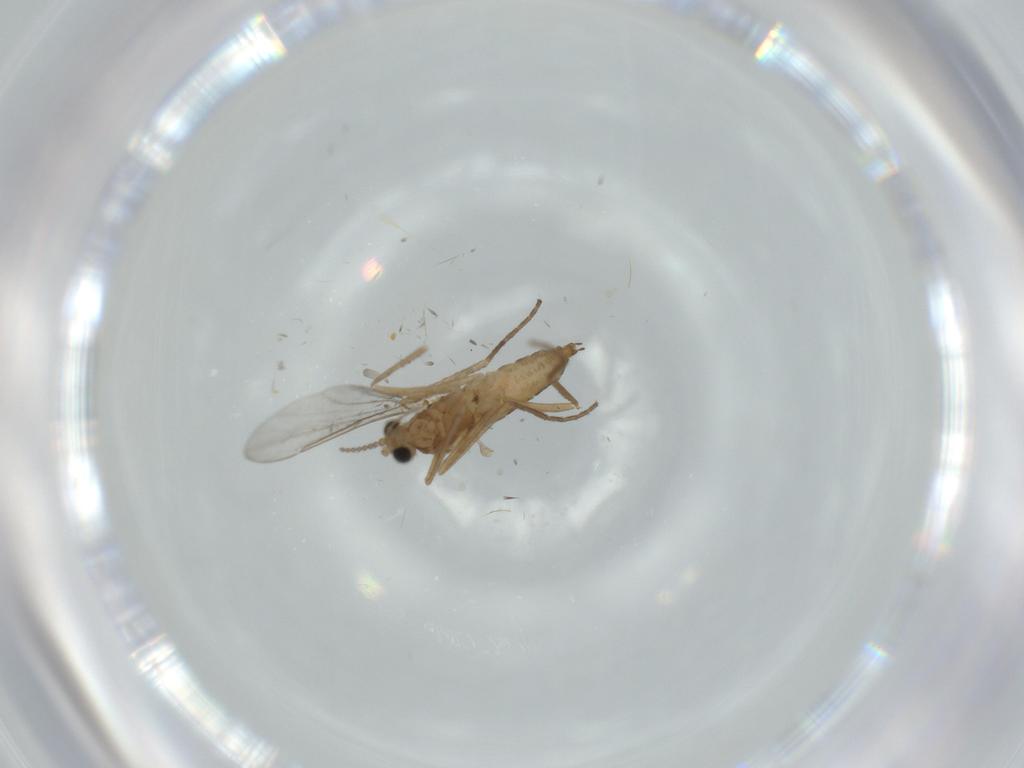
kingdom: Animalia
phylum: Arthropoda
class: Insecta
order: Diptera
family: Cecidomyiidae
